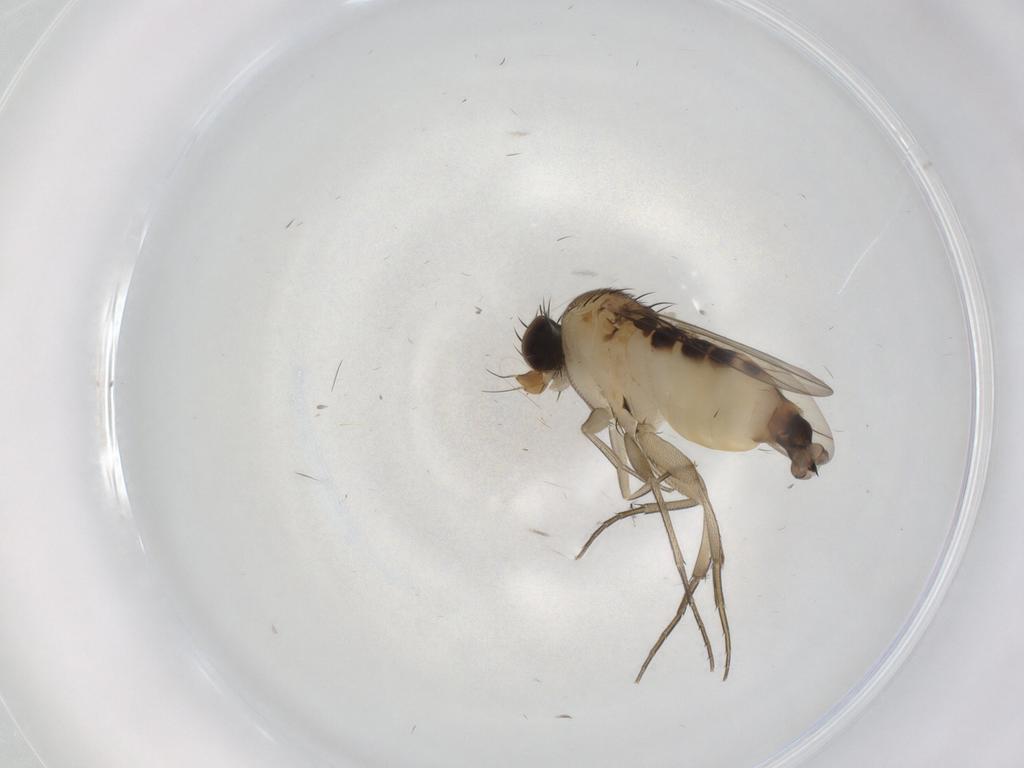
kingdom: Animalia
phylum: Arthropoda
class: Insecta
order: Diptera
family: Phoridae
